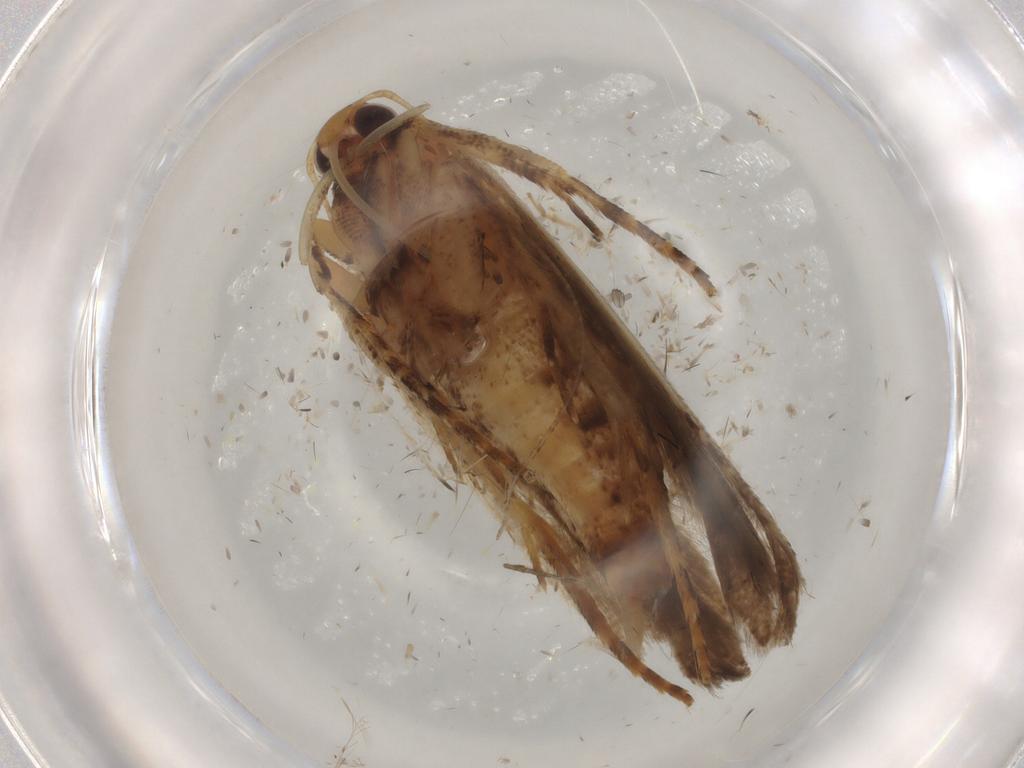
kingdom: Animalia
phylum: Arthropoda
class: Insecta
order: Lepidoptera
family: Gelechiidae
